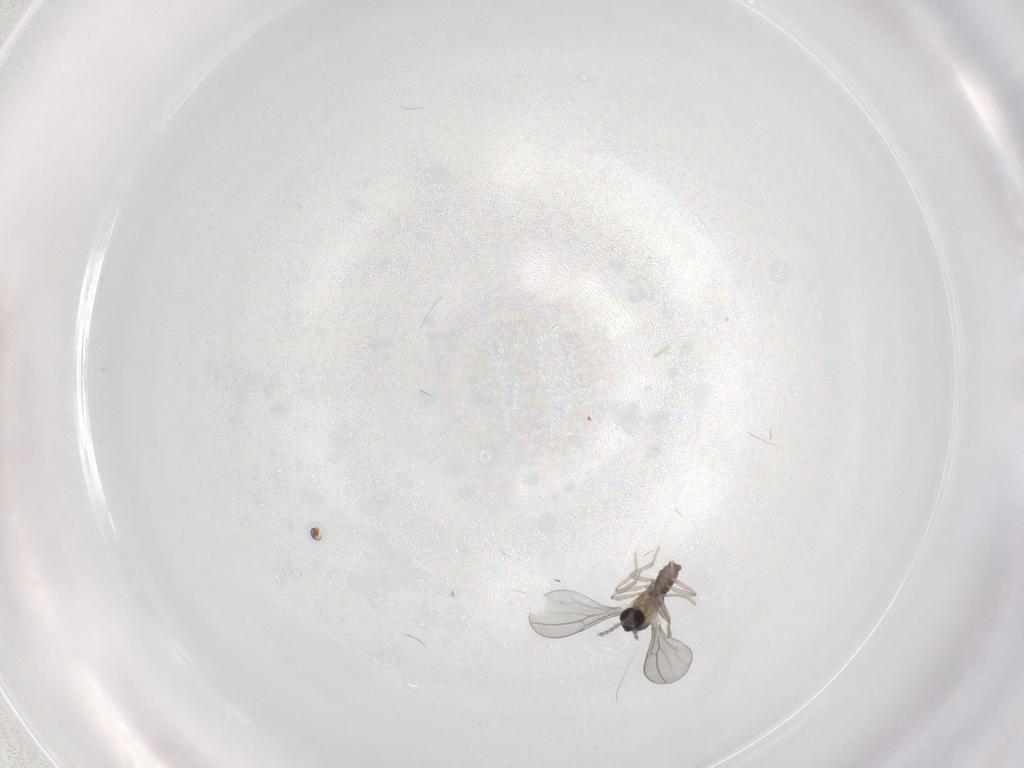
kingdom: Animalia
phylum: Arthropoda
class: Insecta
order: Diptera
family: Cecidomyiidae
